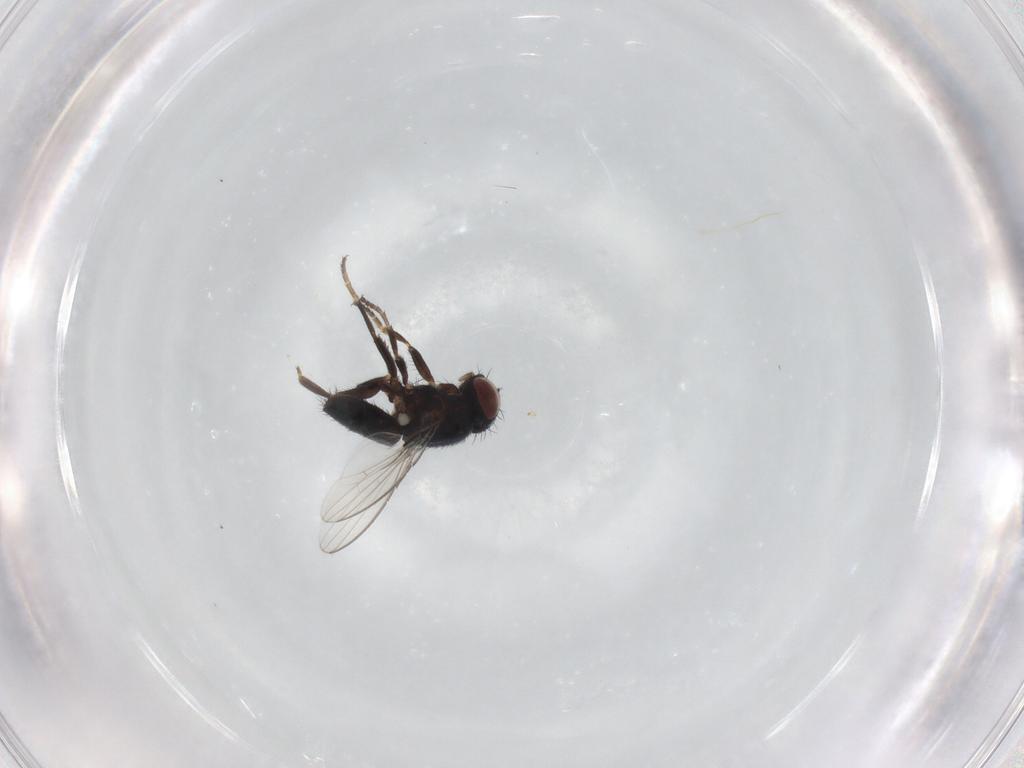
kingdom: Animalia
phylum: Arthropoda
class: Insecta
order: Diptera
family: Milichiidae
